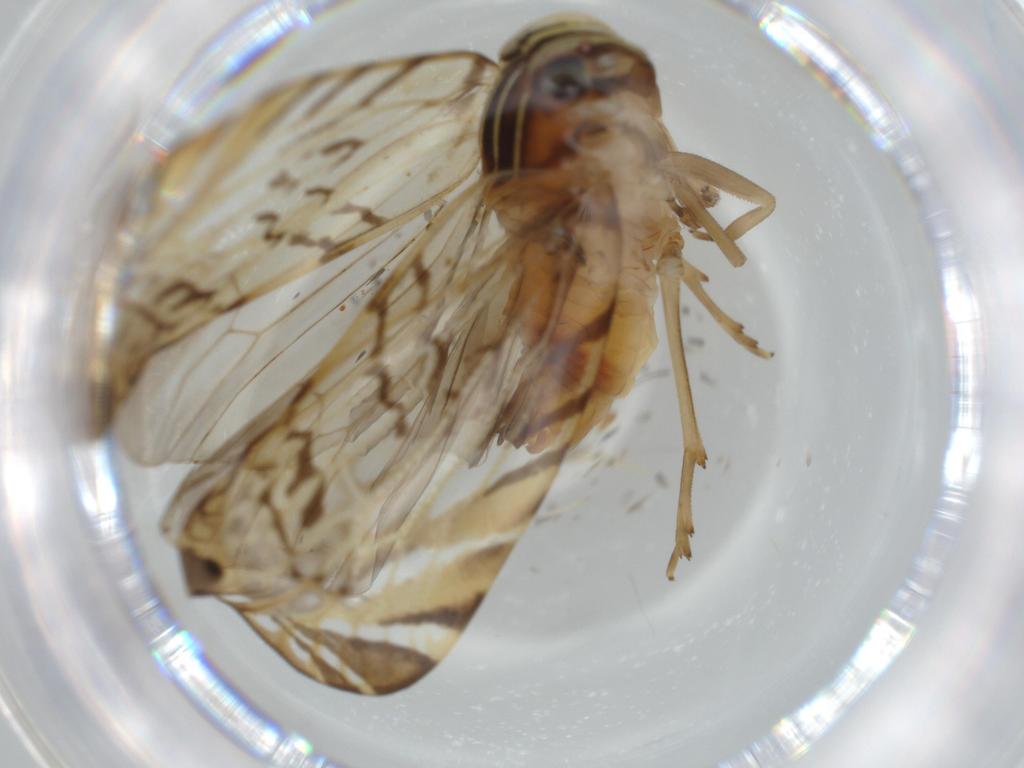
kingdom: Animalia
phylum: Arthropoda
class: Insecta
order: Hemiptera
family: Cixiidae
